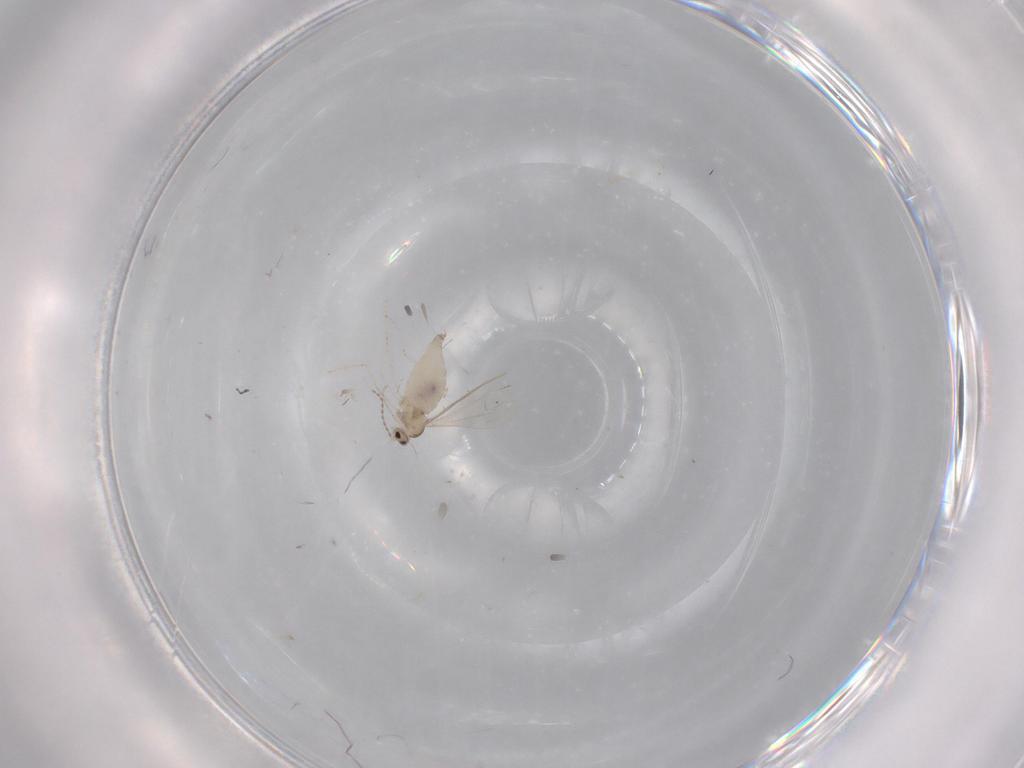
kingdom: Animalia
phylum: Arthropoda
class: Insecta
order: Diptera
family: Cecidomyiidae
